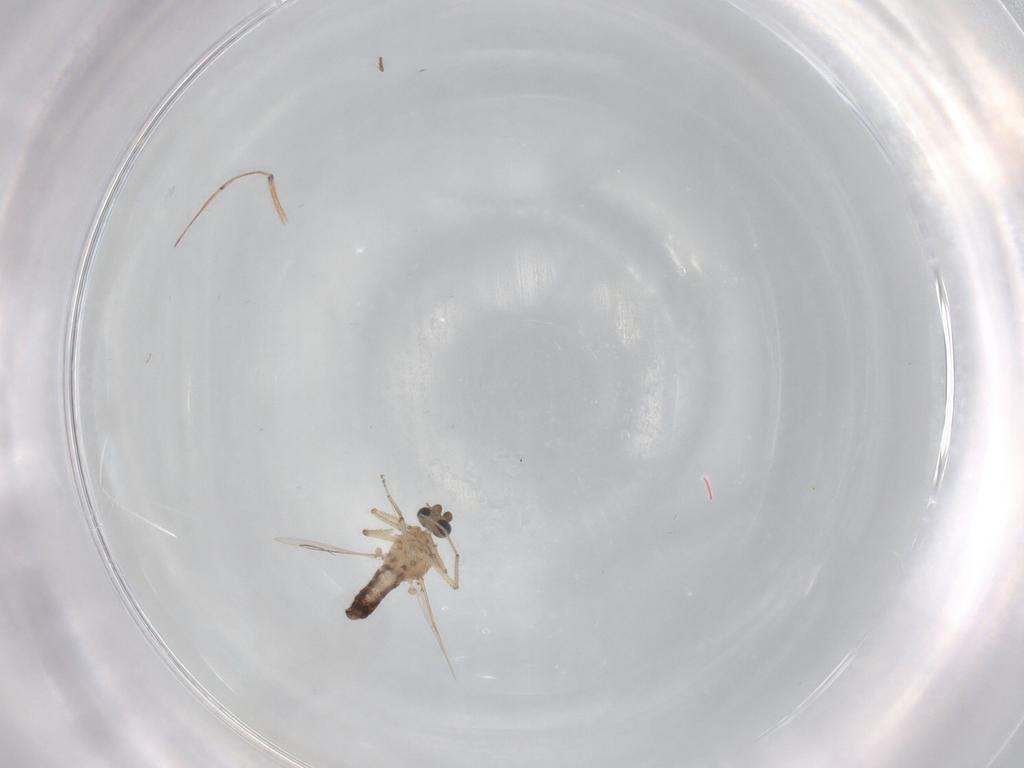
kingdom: Animalia
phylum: Arthropoda
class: Insecta
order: Diptera
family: Ceratopogonidae
